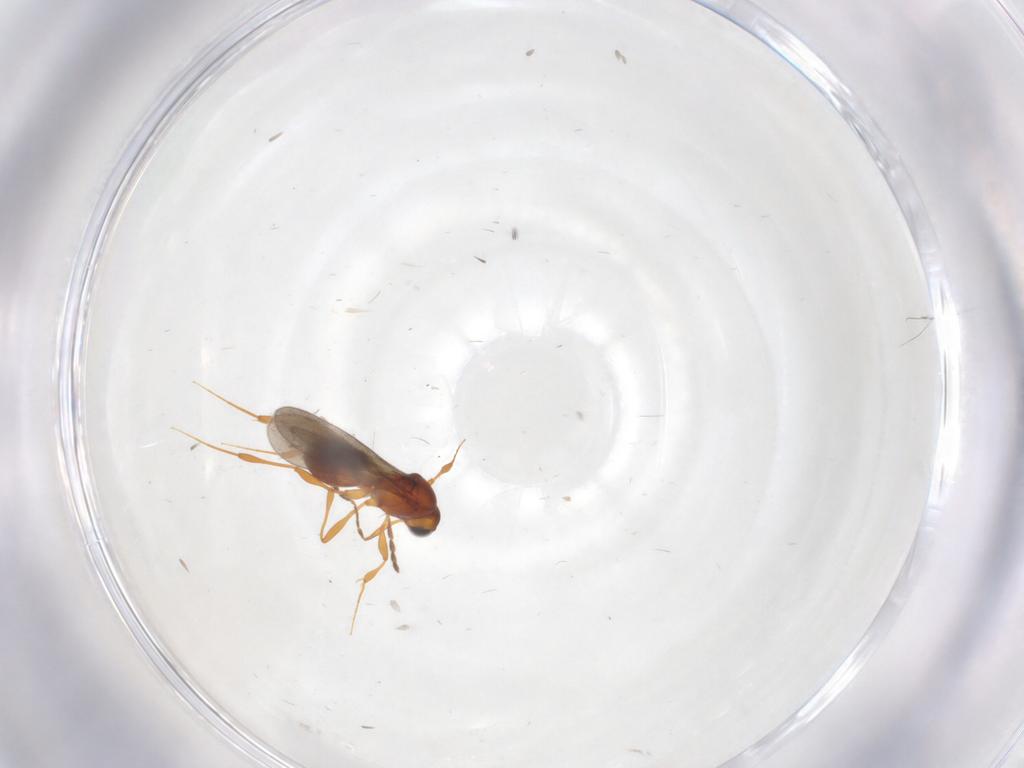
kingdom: Animalia
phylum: Arthropoda
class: Insecta
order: Hymenoptera
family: Platygastridae
